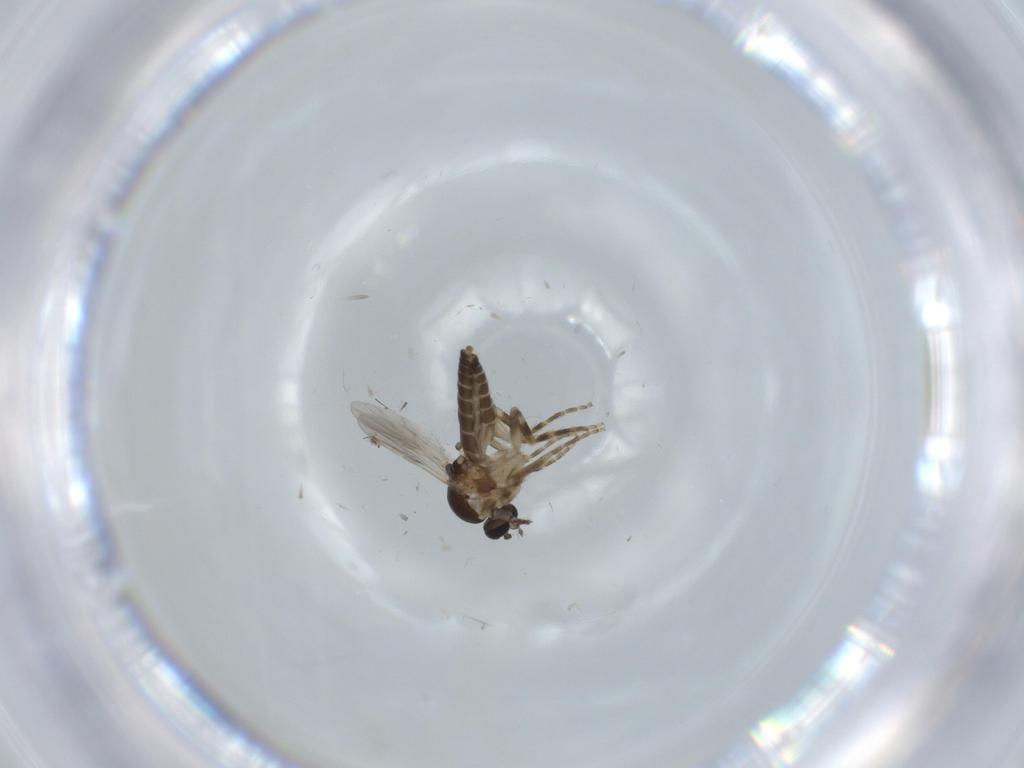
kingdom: Animalia
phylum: Arthropoda
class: Insecta
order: Diptera
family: Ceratopogonidae
